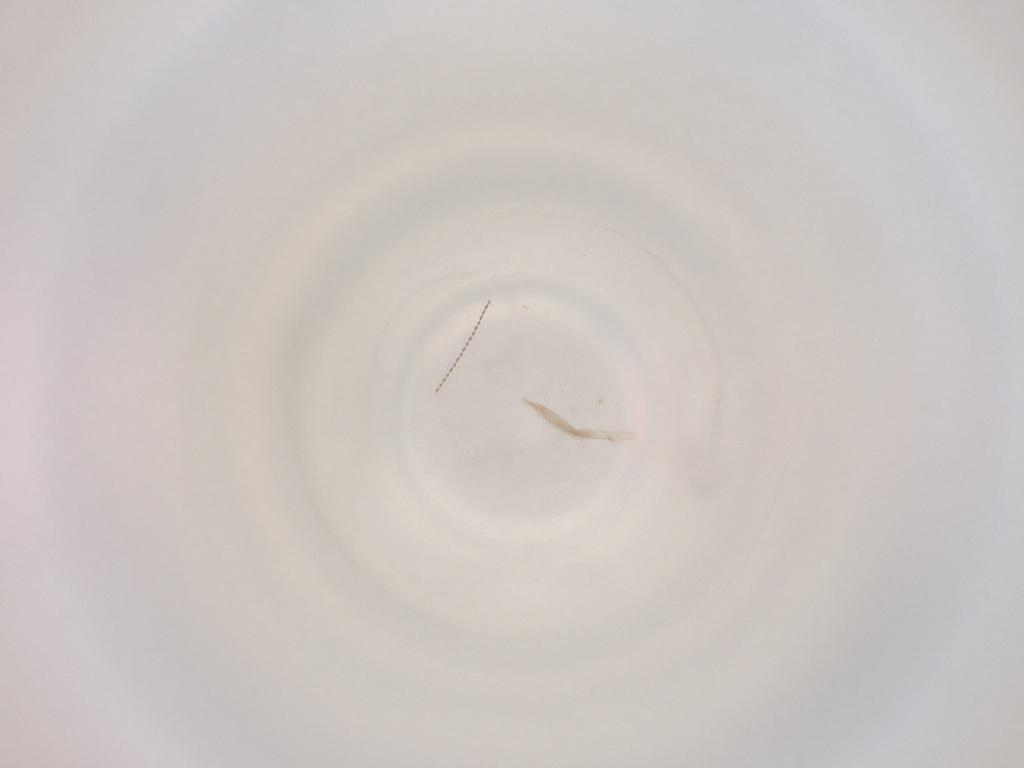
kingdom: Animalia
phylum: Arthropoda
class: Insecta
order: Diptera
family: Cecidomyiidae
